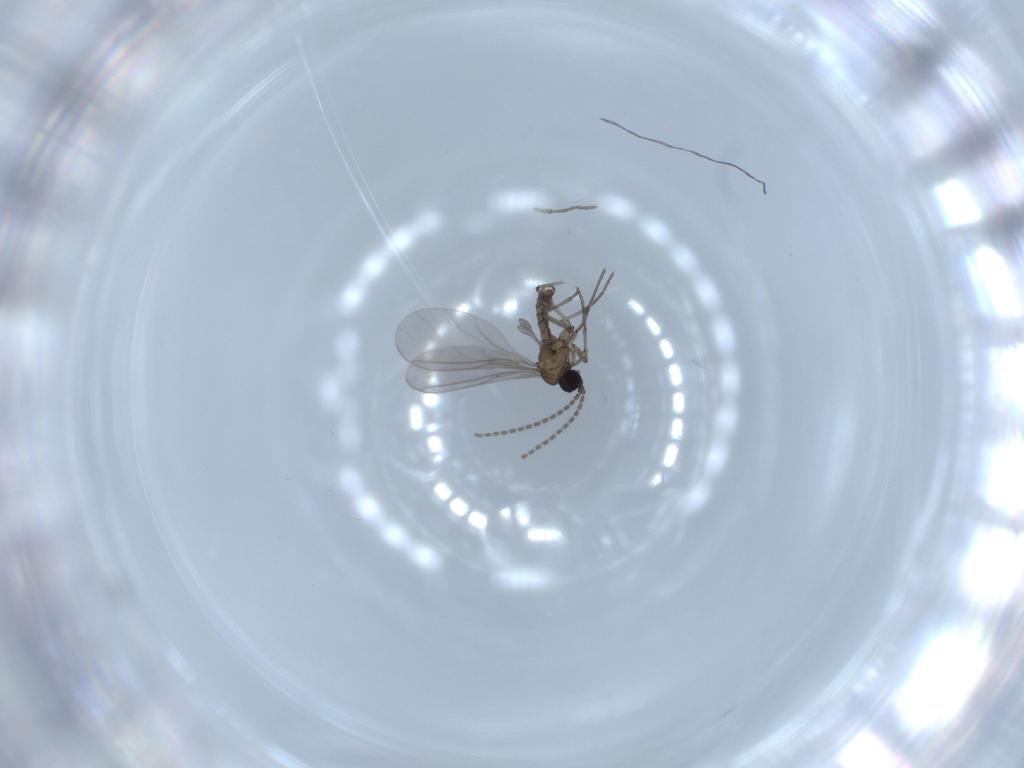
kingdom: Animalia
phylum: Arthropoda
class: Insecta
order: Diptera
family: Sciaridae
